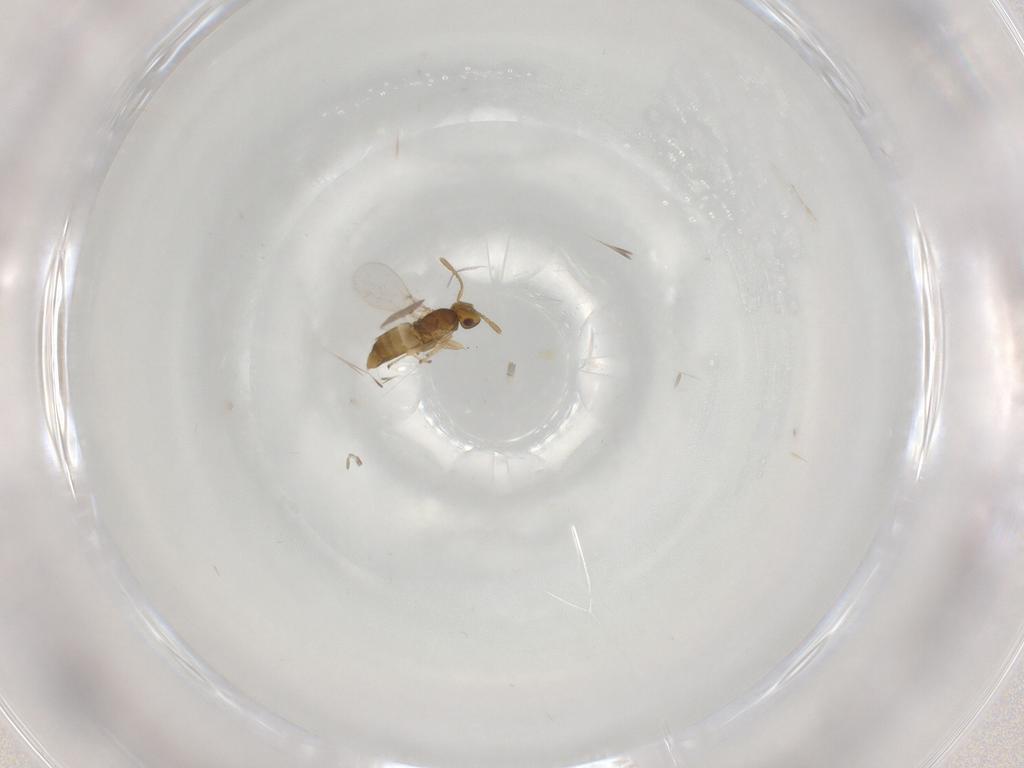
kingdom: Animalia
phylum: Arthropoda
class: Insecta
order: Hymenoptera
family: Encyrtidae
